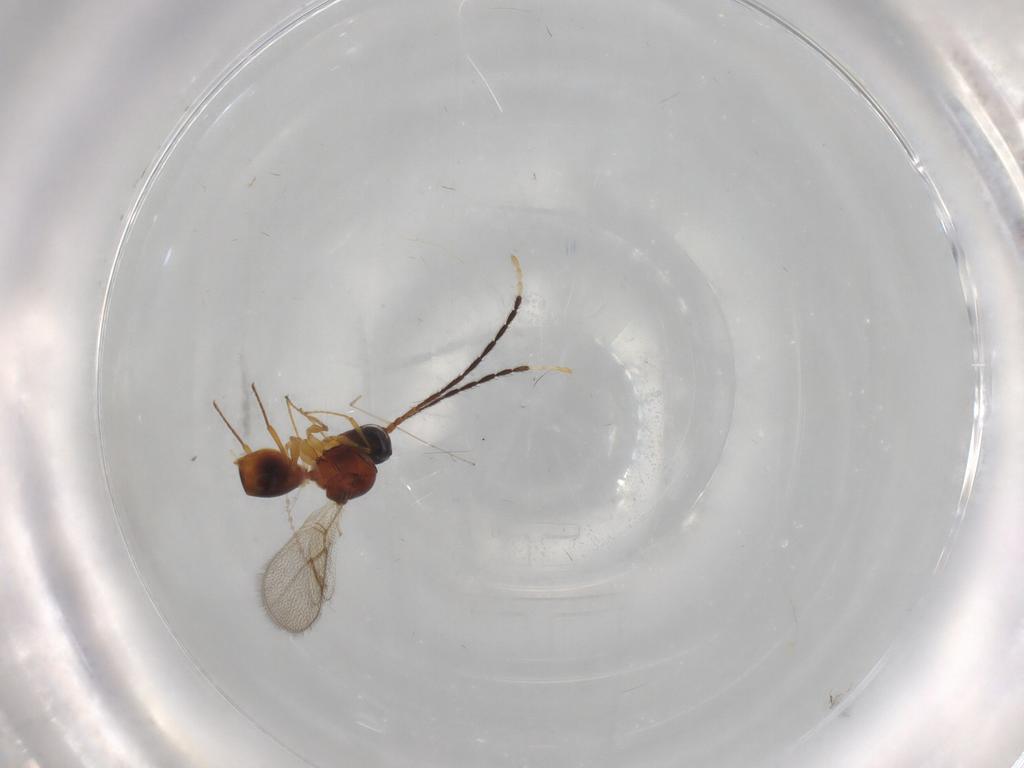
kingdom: Animalia
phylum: Arthropoda
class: Insecta
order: Hymenoptera
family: Figitidae
